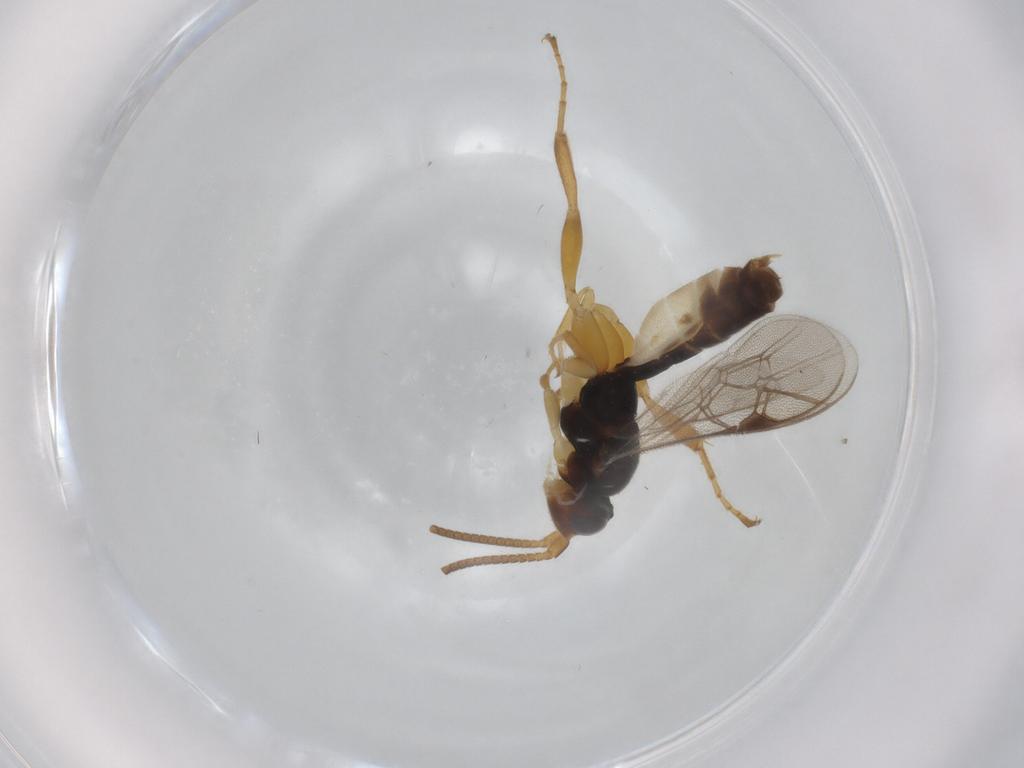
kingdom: Animalia
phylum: Arthropoda
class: Insecta
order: Hymenoptera
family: Ichneumonidae
